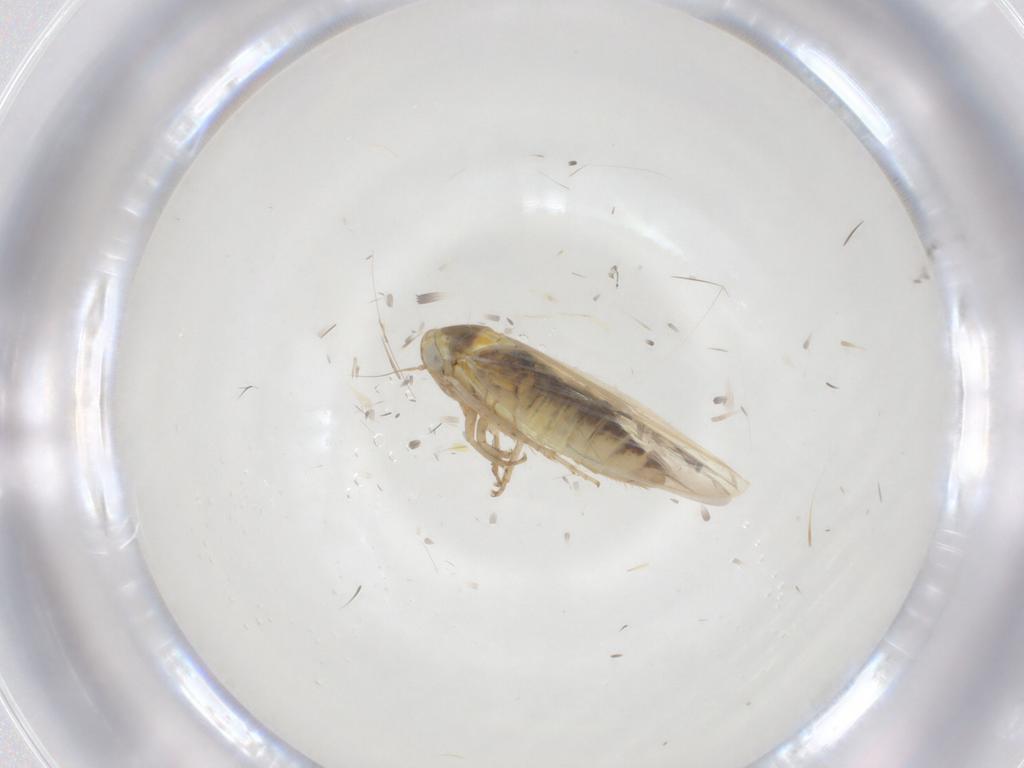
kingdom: Animalia
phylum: Arthropoda
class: Insecta
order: Hemiptera
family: Cicadellidae
